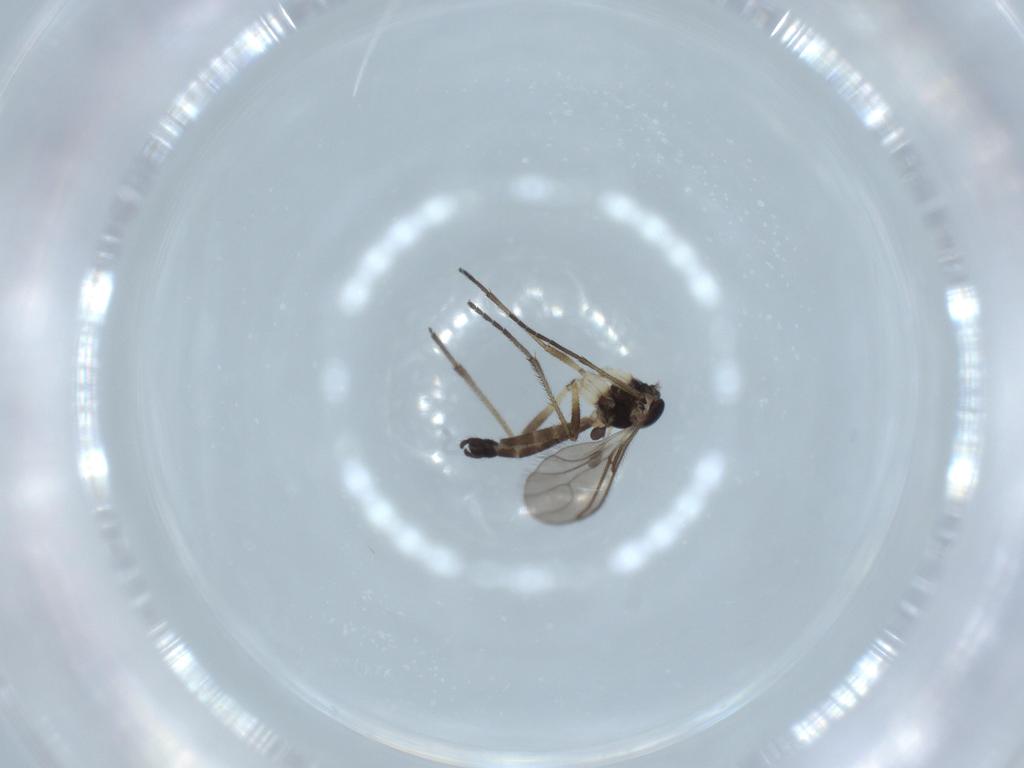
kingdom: Animalia
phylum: Arthropoda
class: Insecta
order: Diptera
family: Sciaridae
